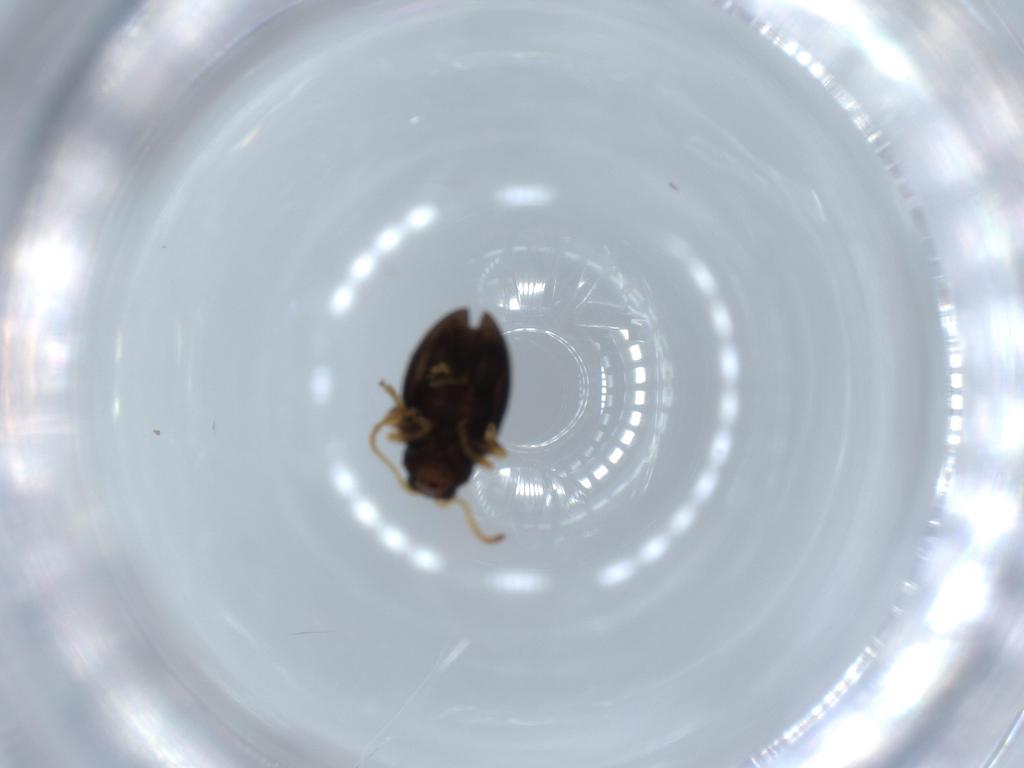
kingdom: Animalia
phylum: Arthropoda
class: Insecta
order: Coleoptera
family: Chrysomelidae
